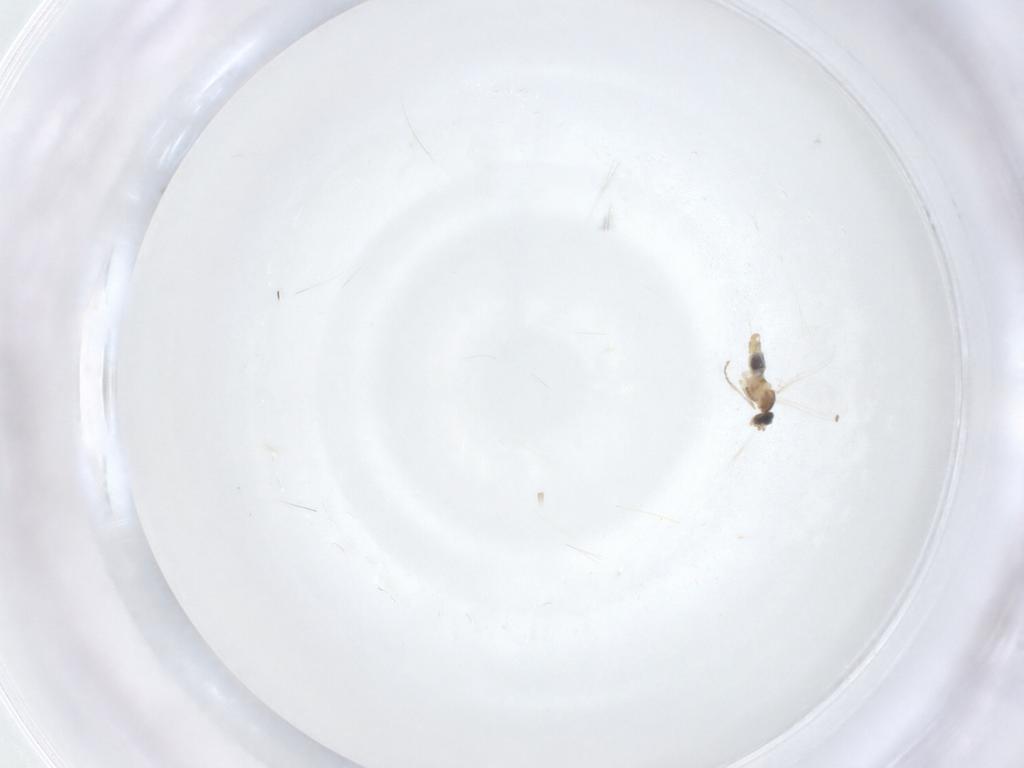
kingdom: Animalia
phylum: Arthropoda
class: Insecta
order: Diptera
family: Cecidomyiidae
